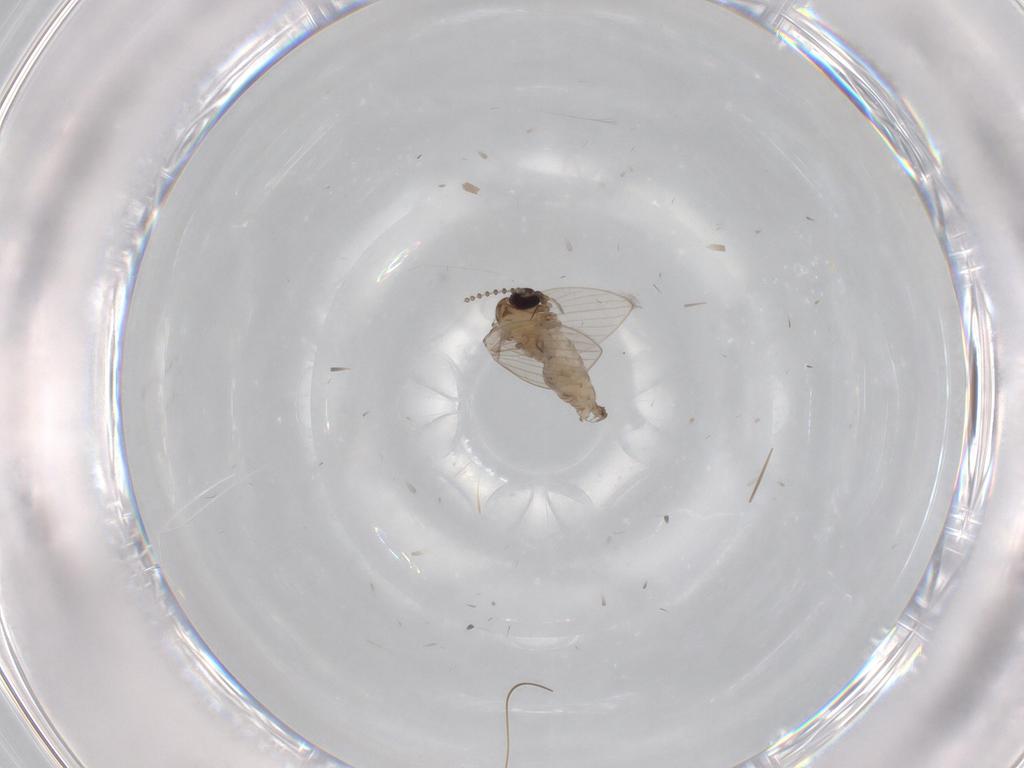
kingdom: Animalia
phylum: Arthropoda
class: Insecta
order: Diptera
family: Psychodidae
